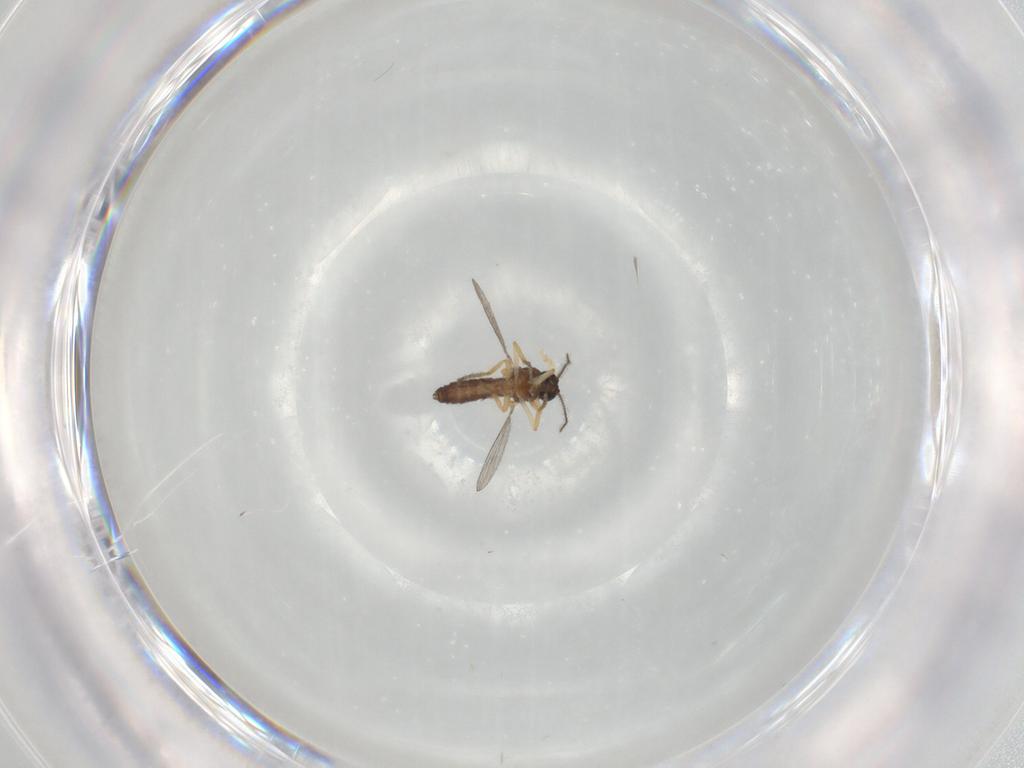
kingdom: Animalia
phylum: Arthropoda
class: Insecta
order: Diptera
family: Ceratopogonidae
